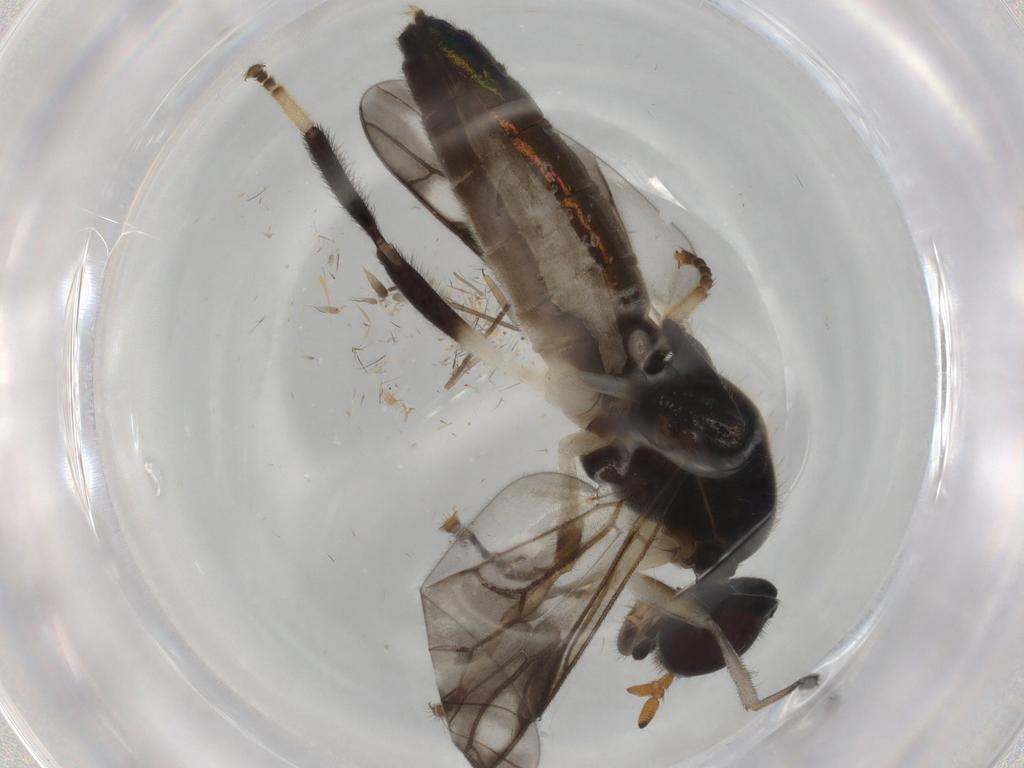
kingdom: Animalia
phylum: Arthropoda
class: Insecta
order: Diptera
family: Stratiomyidae
